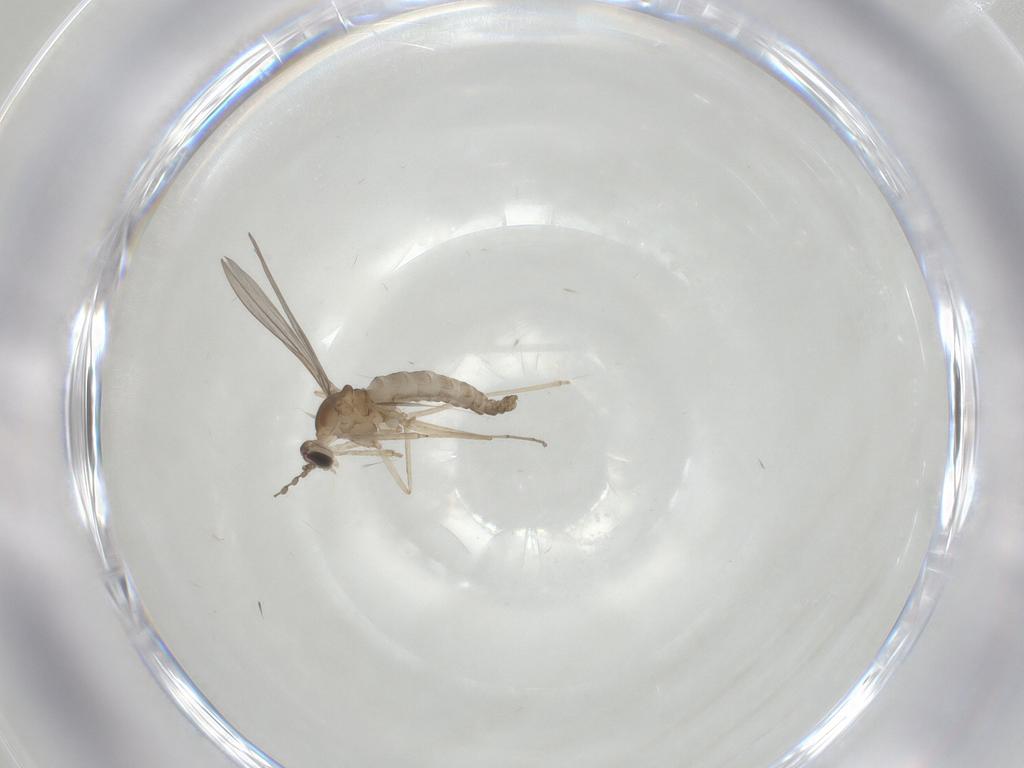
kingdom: Animalia
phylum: Arthropoda
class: Insecta
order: Diptera
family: Cecidomyiidae
